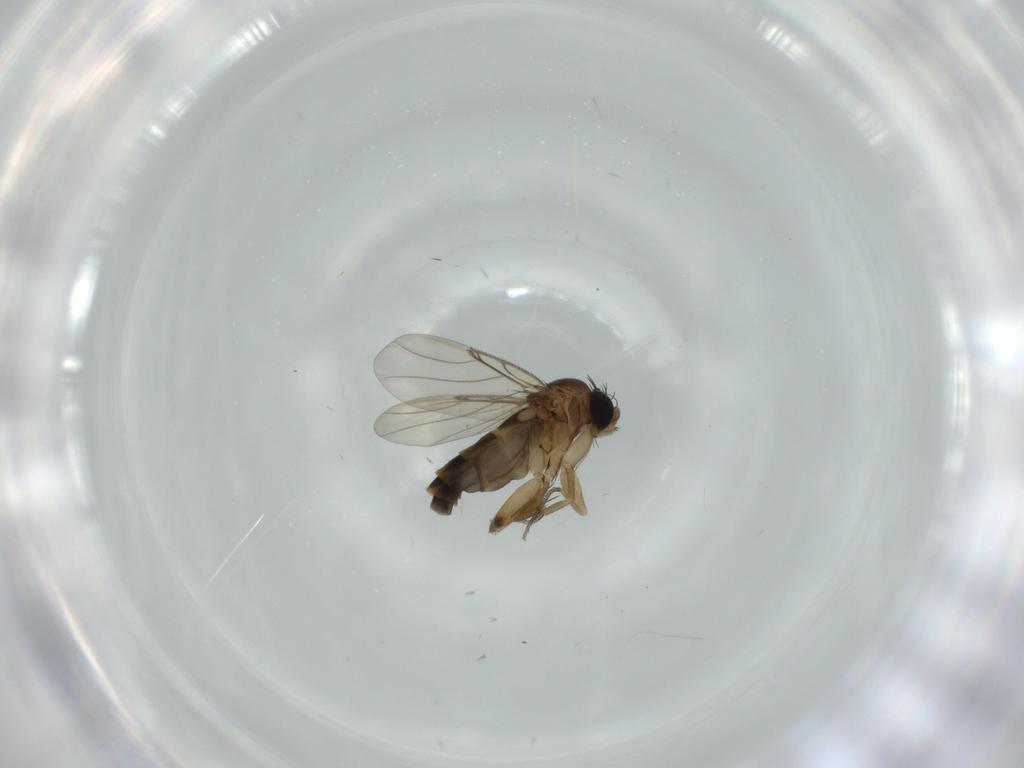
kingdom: Animalia
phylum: Arthropoda
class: Insecta
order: Diptera
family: Phoridae
